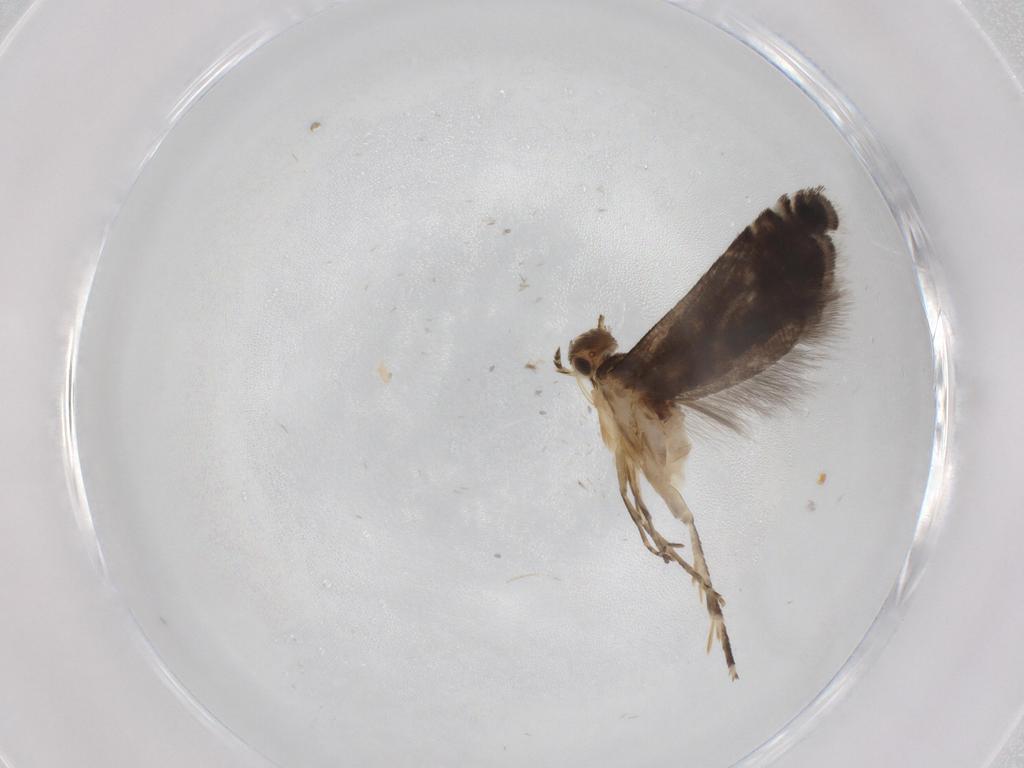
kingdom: Animalia
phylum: Arthropoda
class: Insecta
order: Lepidoptera
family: Glyphipterigidae
